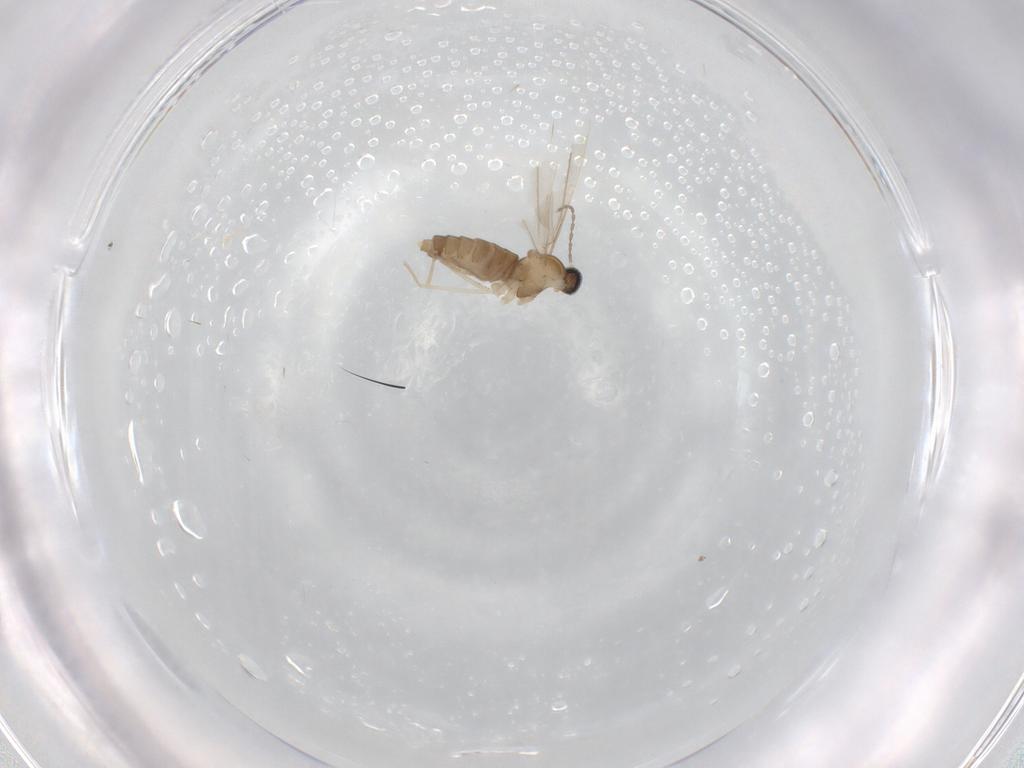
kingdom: Animalia
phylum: Arthropoda
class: Insecta
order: Diptera
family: Cecidomyiidae
